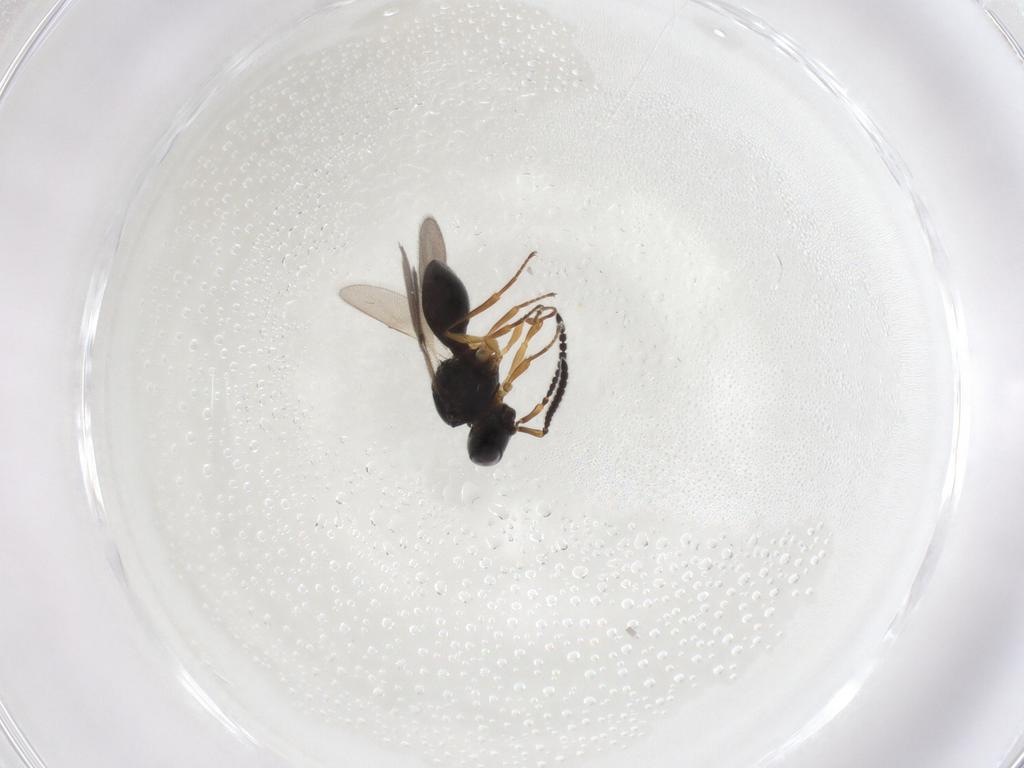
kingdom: Animalia
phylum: Arthropoda
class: Insecta
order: Hymenoptera
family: Scelionidae
